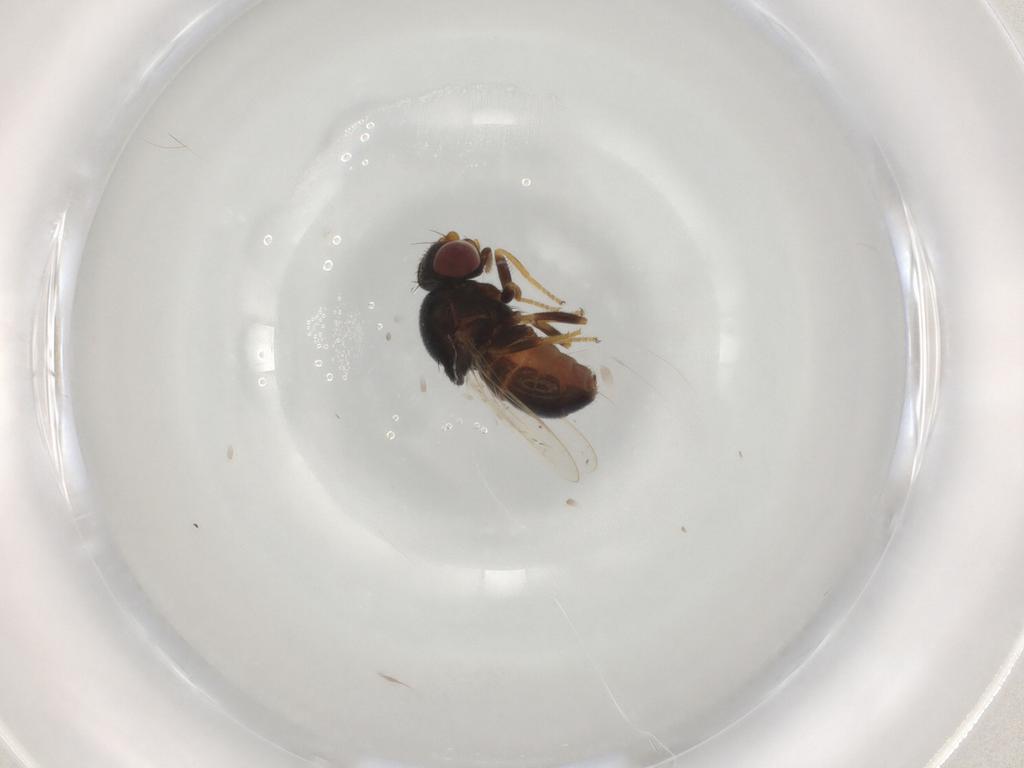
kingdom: Animalia
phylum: Arthropoda
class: Insecta
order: Diptera
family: Chloropidae
